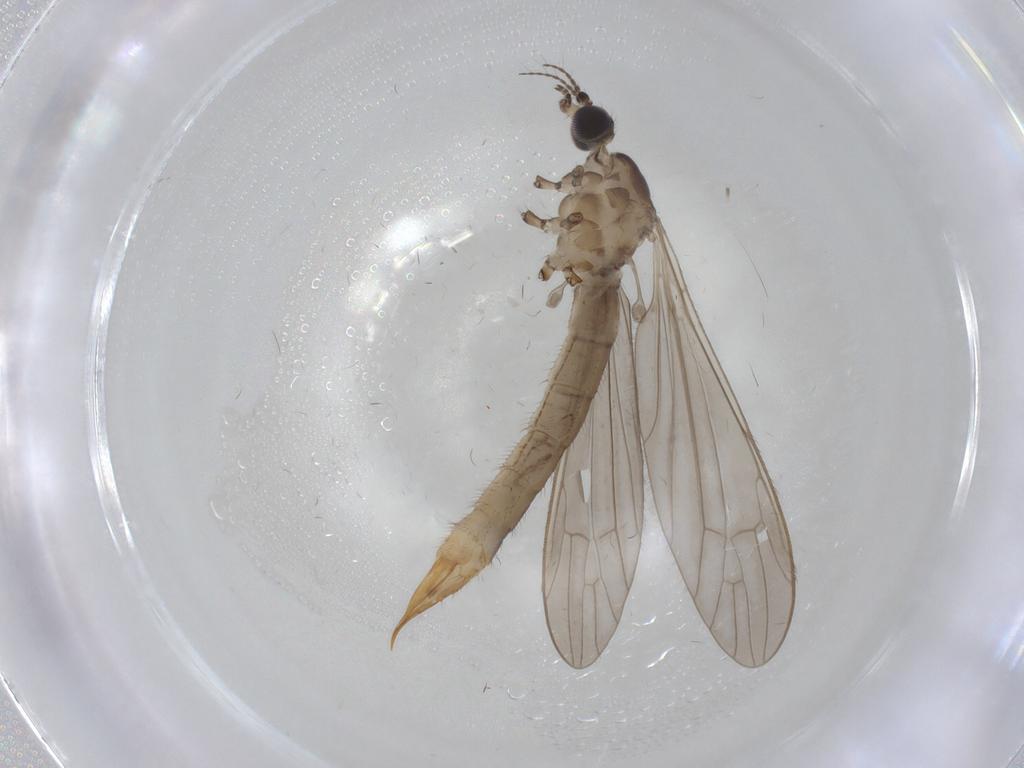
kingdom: Animalia
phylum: Arthropoda
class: Insecta
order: Diptera
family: Limoniidae
